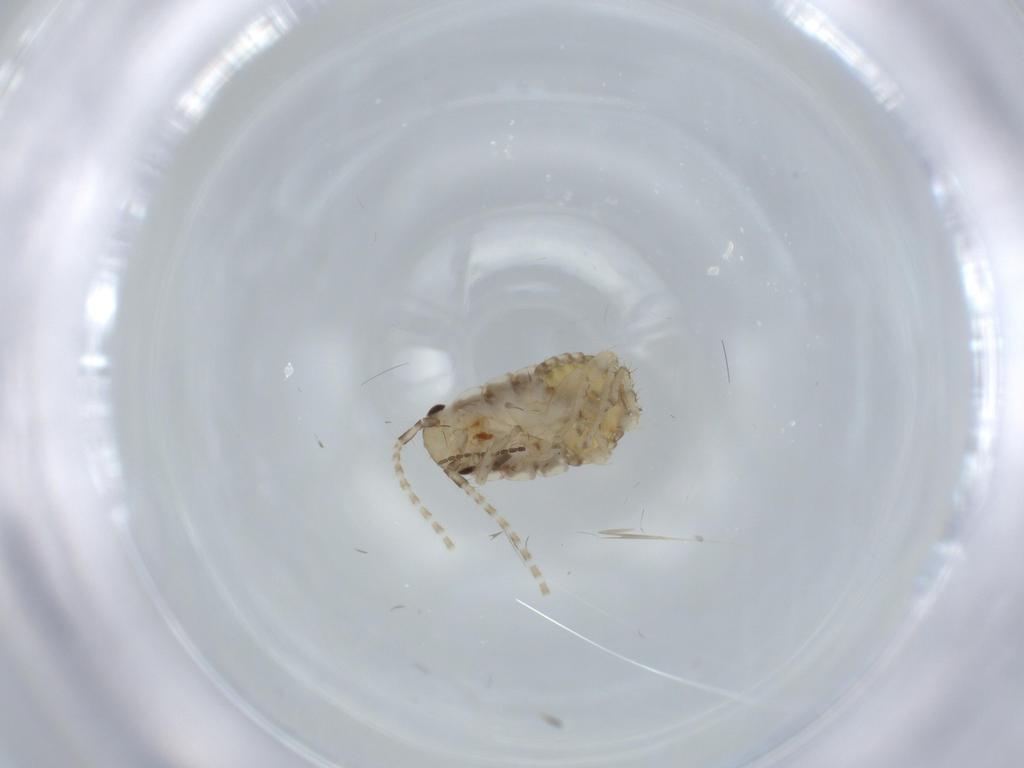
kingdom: Animalia
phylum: Arthropoda
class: Insecta
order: Blattodea
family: Ectobiidae
